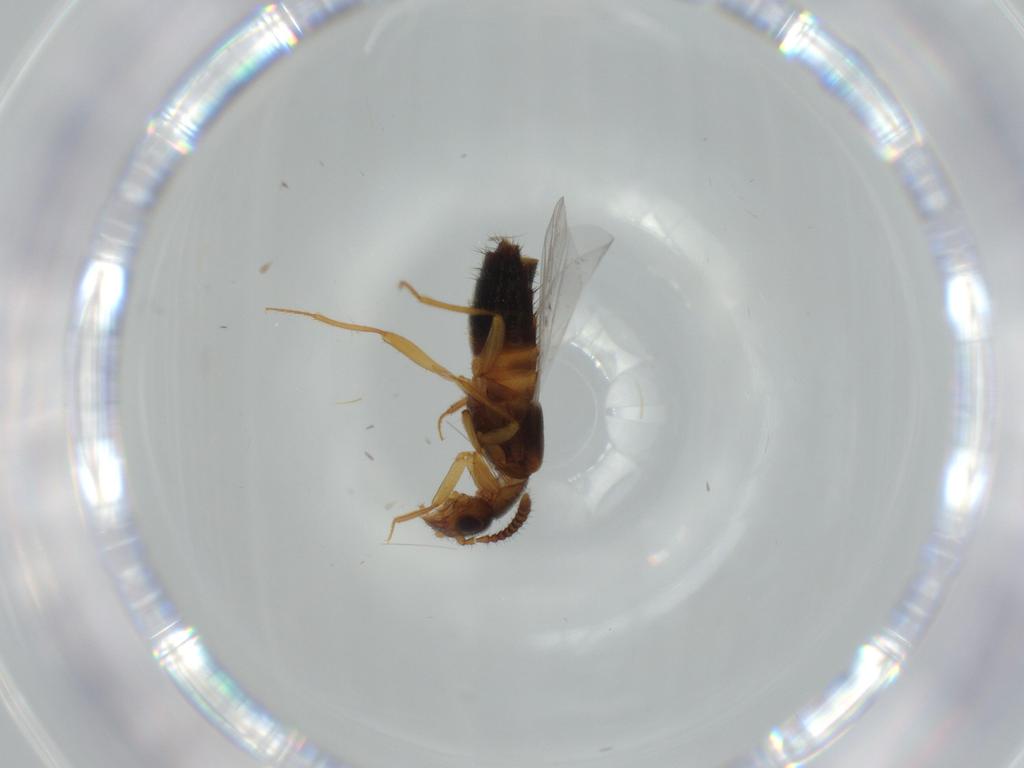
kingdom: Animalia
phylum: Arthropoda
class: Insecta
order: Coleoptera
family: Staphylinidae
